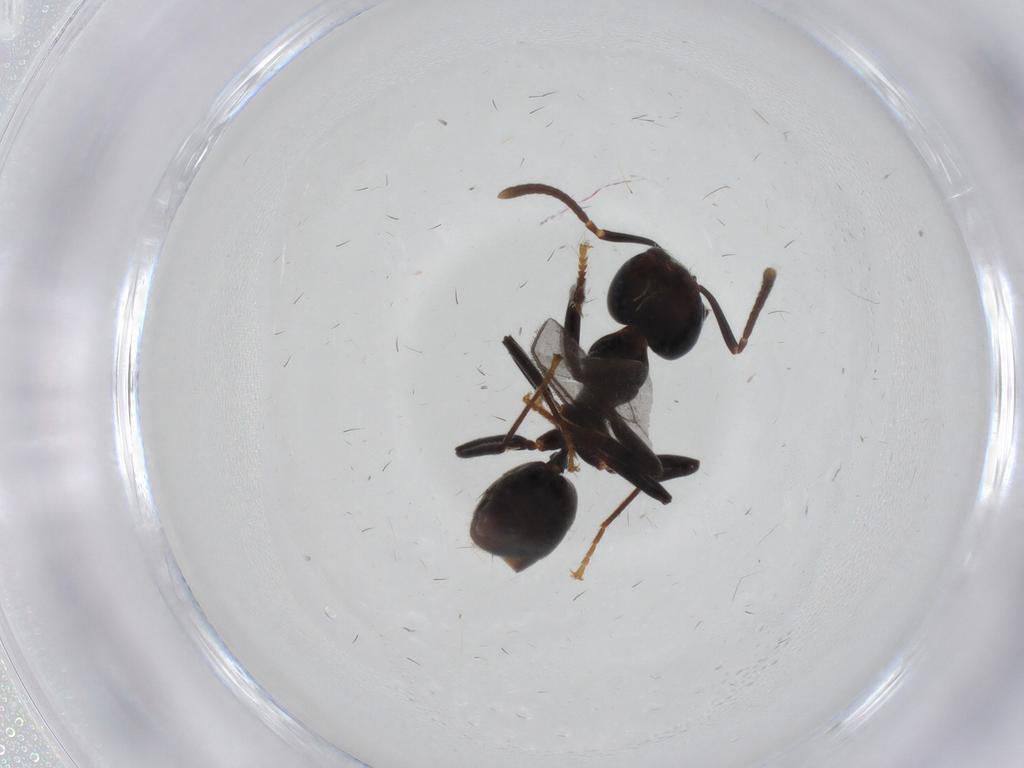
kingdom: Animalia
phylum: Arthropoda
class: Insecta
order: Hymenoptera
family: Formicidae
